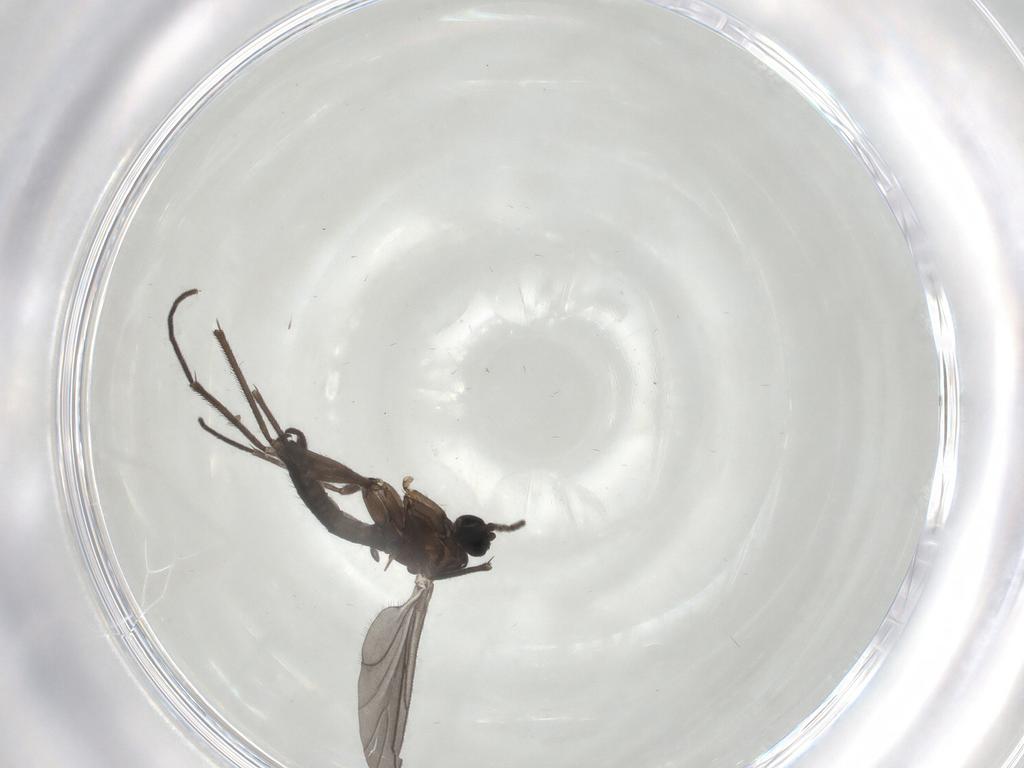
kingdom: Animalia
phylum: Arthropoda
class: Insecta
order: Diptera
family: Sciaridae
